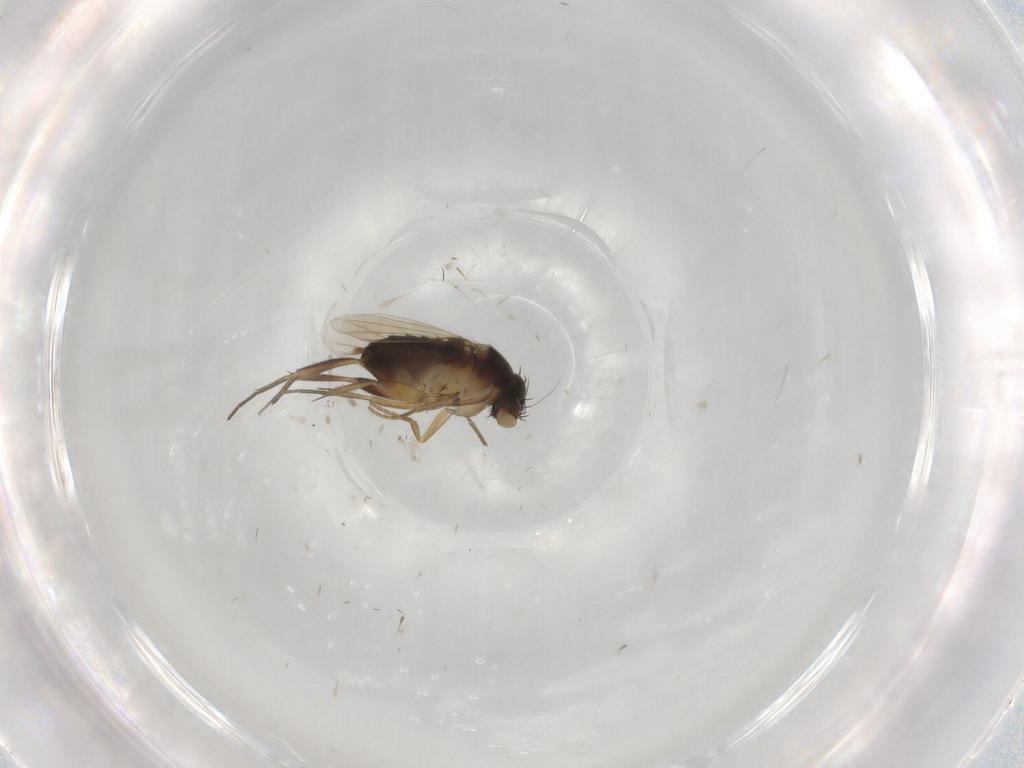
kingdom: Animalia
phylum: Arthropoda
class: Insecta
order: Diptera
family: Phoridae
